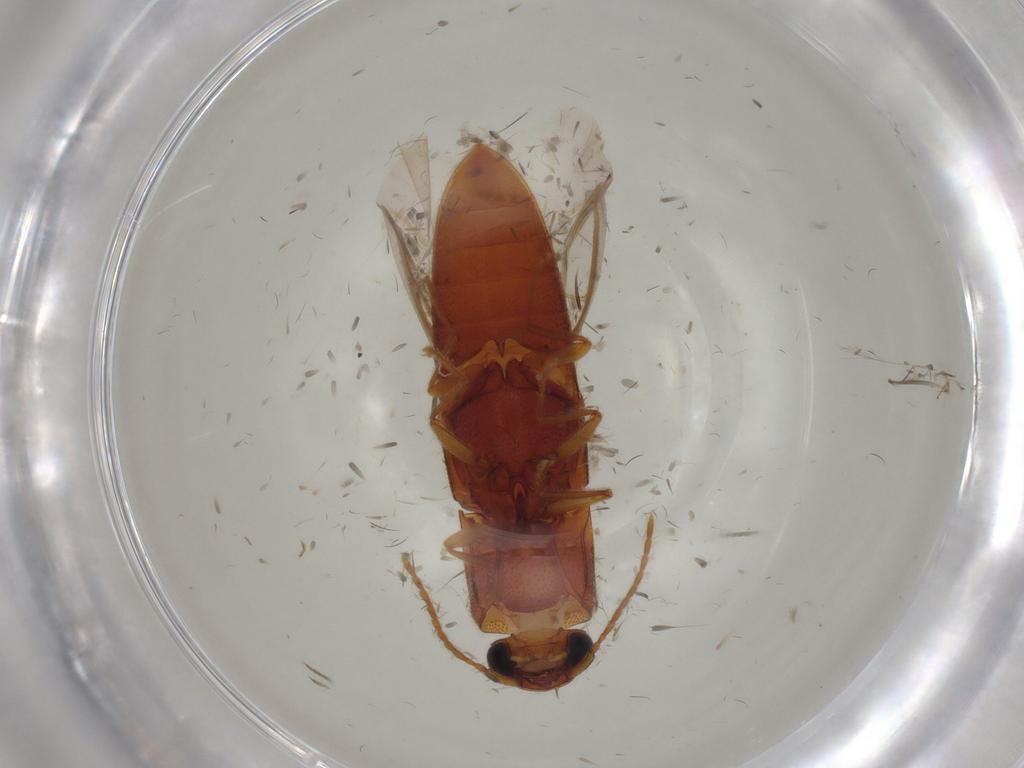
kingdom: Animalia
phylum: Arthropoda
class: Insecta
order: Coleoptera
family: Elateridae
